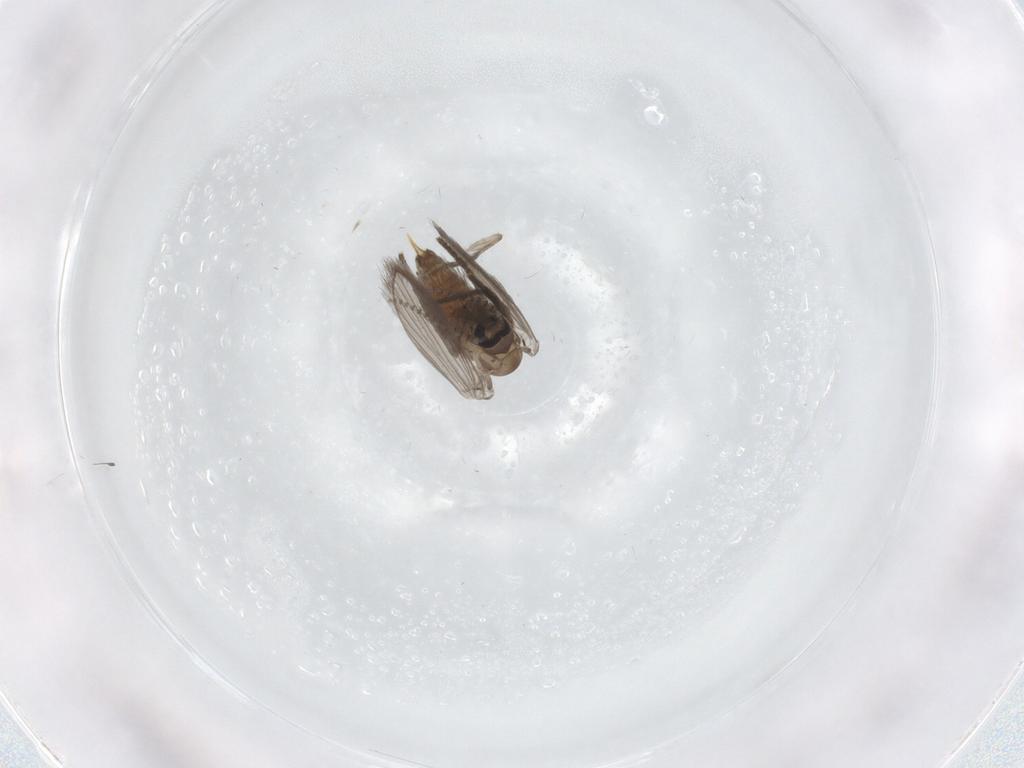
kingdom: Animalia
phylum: Arthropoda
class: Insecta
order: Diptera
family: Psychodidae
